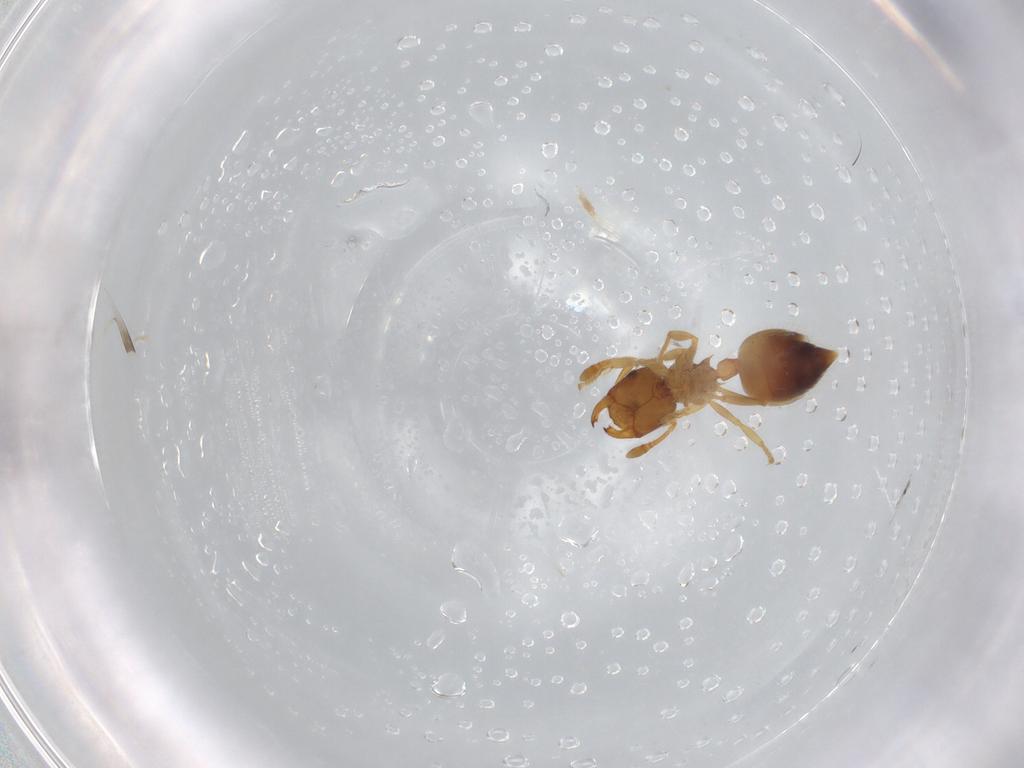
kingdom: Animalia
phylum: Arthropoda
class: Insecta
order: Hymenoptera
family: Formicidae
